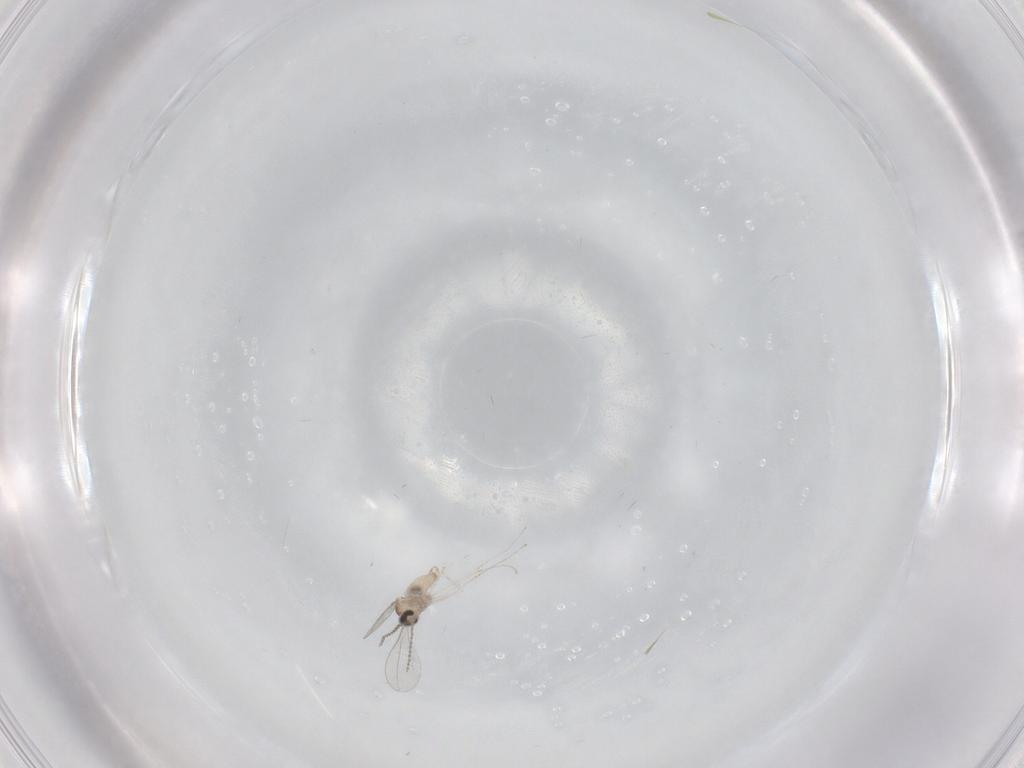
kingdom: Animalia
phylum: Arthropoda
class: Insecta
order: Diptera
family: Cecidomyiidae
